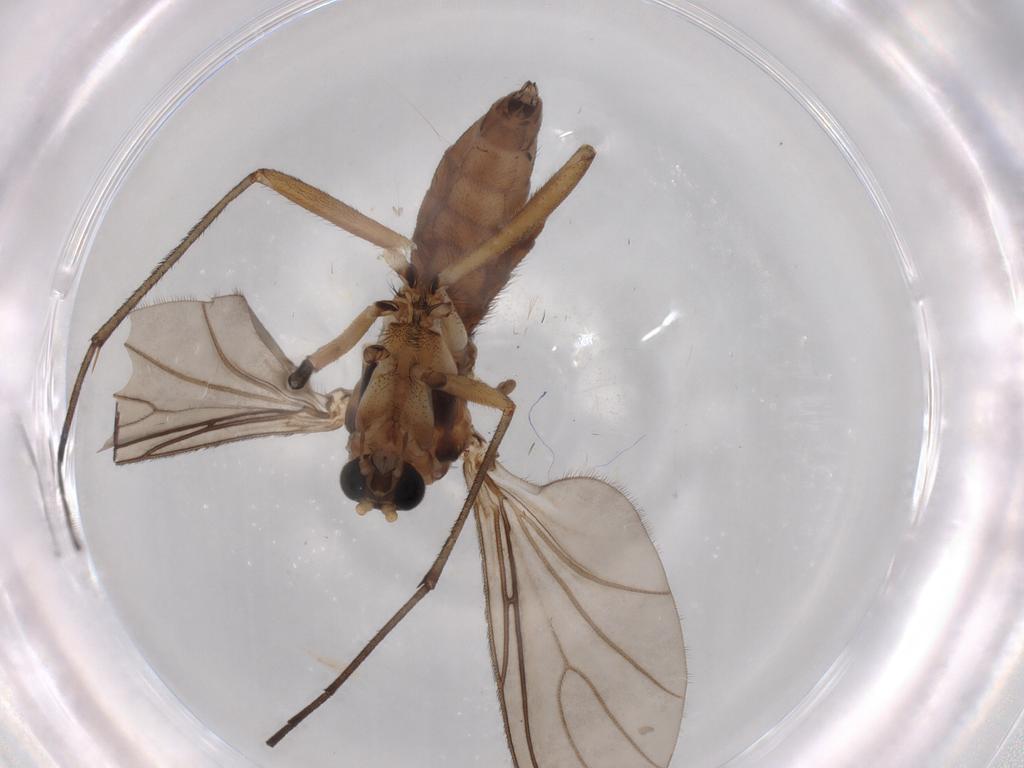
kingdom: Animalia
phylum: Arthropoda
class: Insecta
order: Diptera
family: Sciaridae
